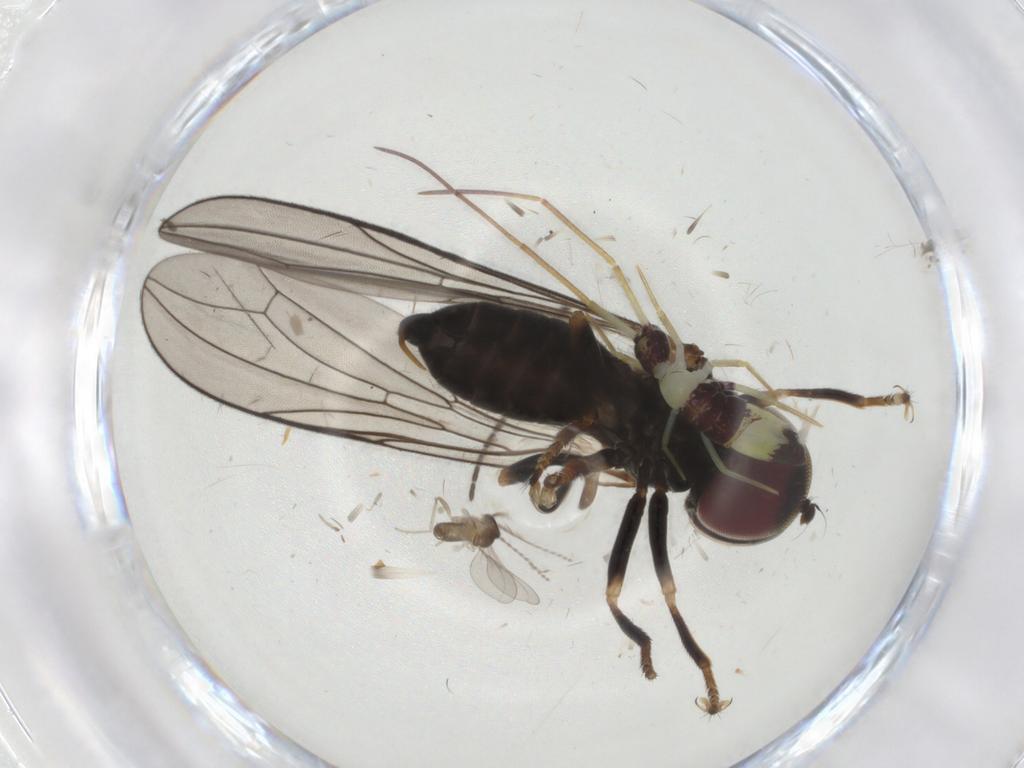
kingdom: Animalia
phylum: Arthropoda
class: Insecta
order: Diptera
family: Cecidomyiidae
